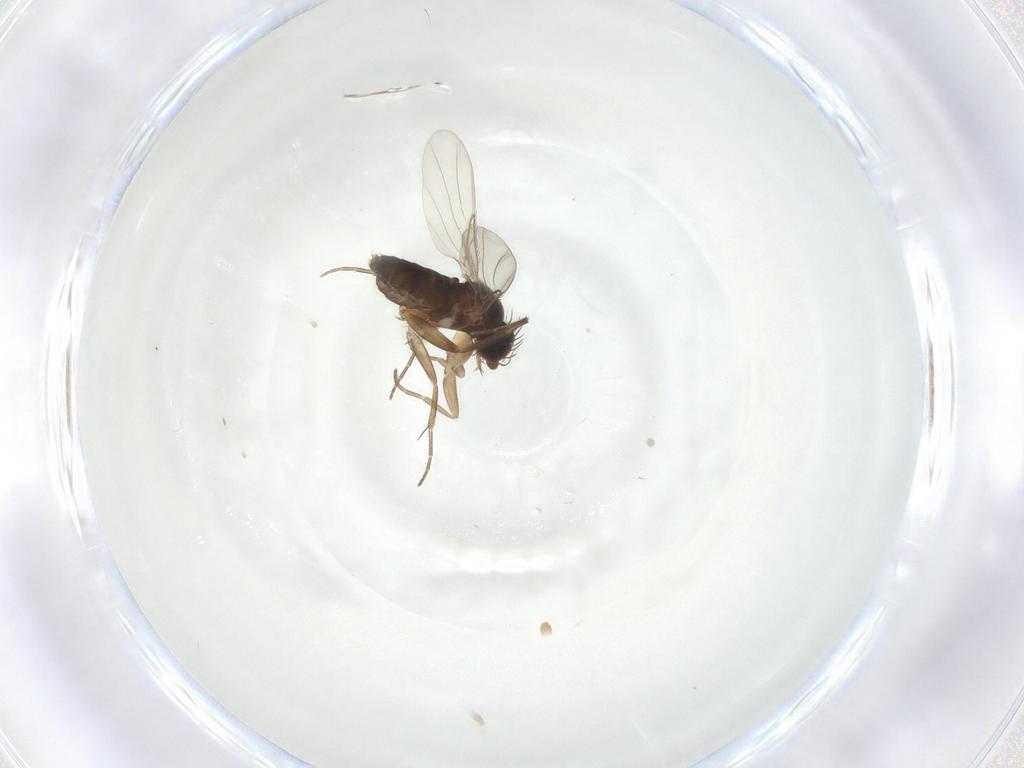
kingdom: Animalia
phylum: Arthropoda
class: Insecta
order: Diptera
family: Phoridae
